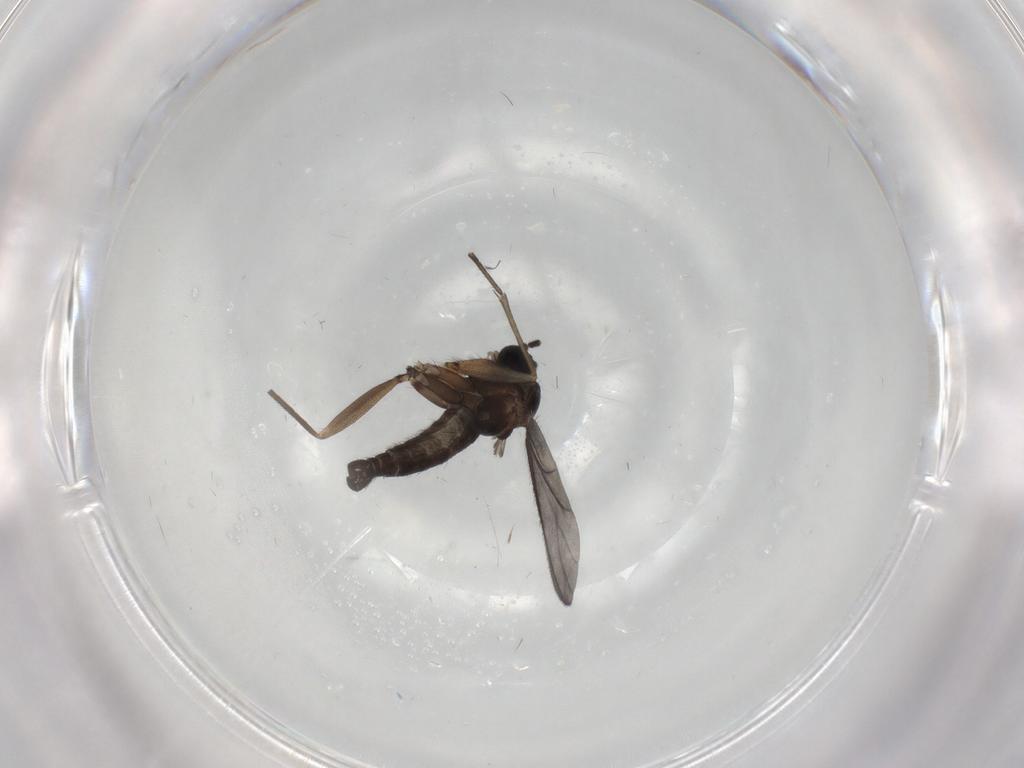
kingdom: Animalia
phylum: Arthropoda
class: Insecta
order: Diptera
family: Sciaridae
